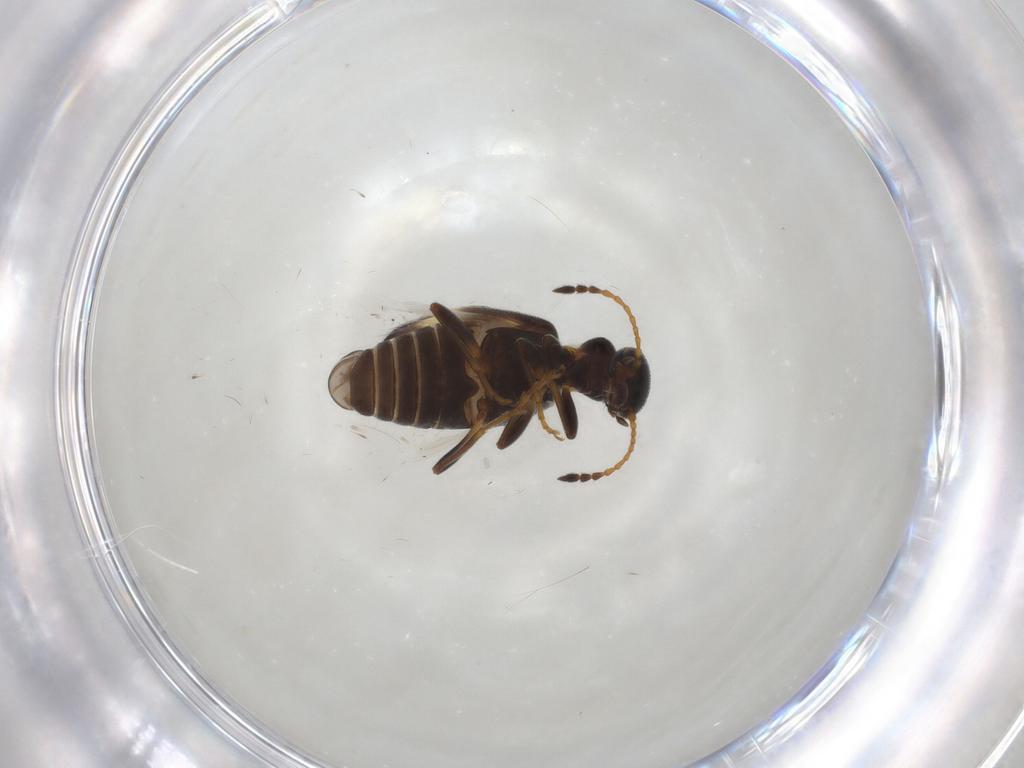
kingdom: Animalia
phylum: Arthropoda
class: Insecta
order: Coleoptera
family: Anthicidae
